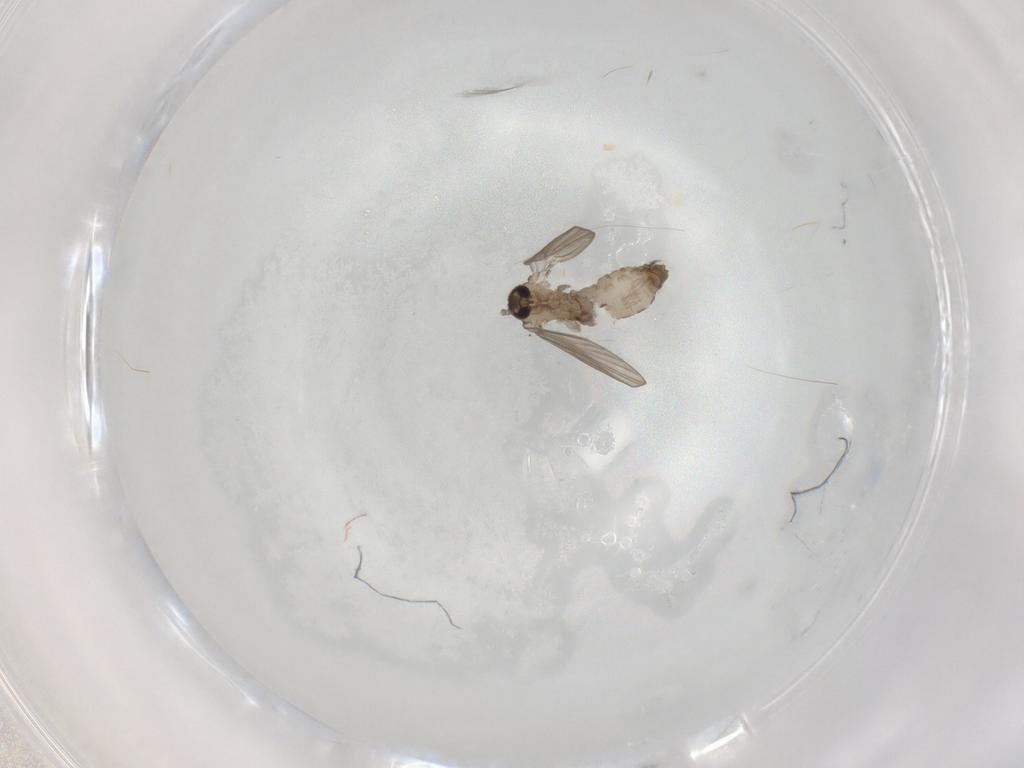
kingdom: Animalia
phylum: Arthropoda
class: Insecta
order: Diptera
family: Psychodidae
